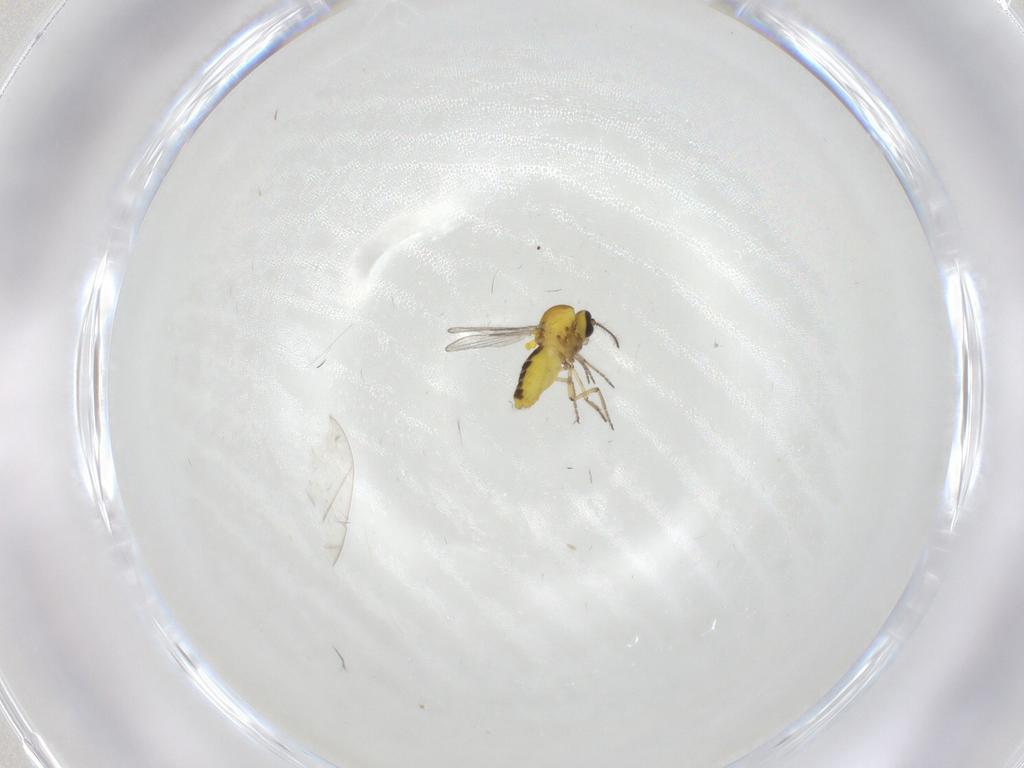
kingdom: Animalia
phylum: Arthropoda
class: Insecta
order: Diptera
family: Ceratopogonidae
